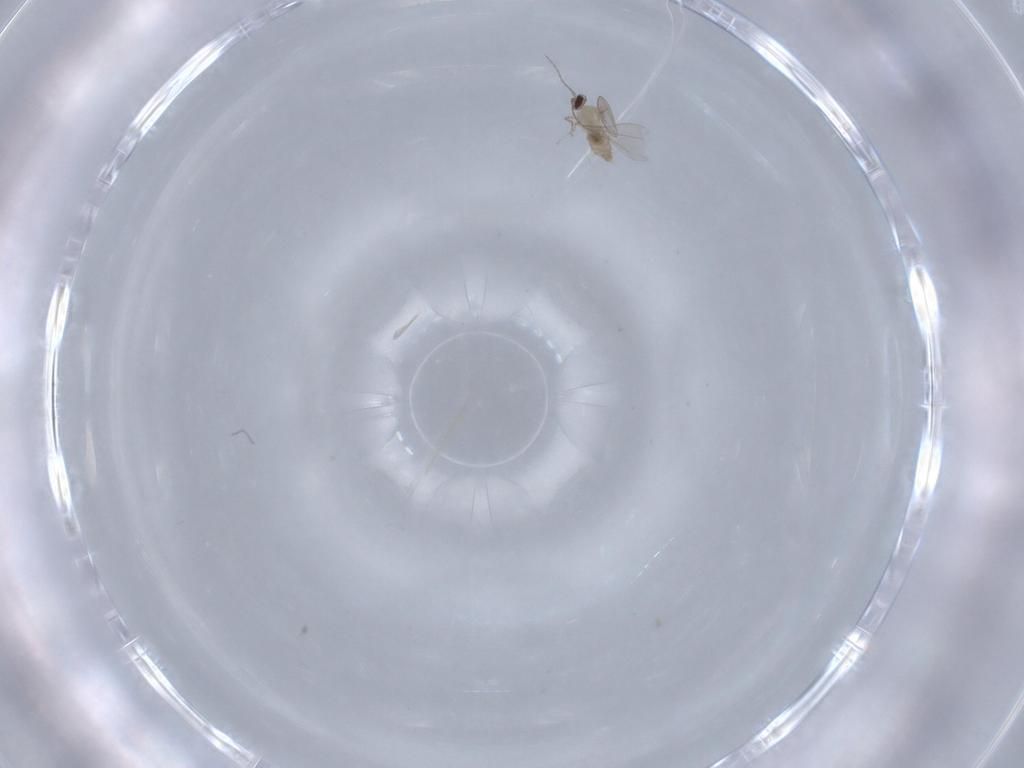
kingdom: Animalia
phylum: Arthropoda
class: Insecta
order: Diptera
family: Cecidomyiidae
